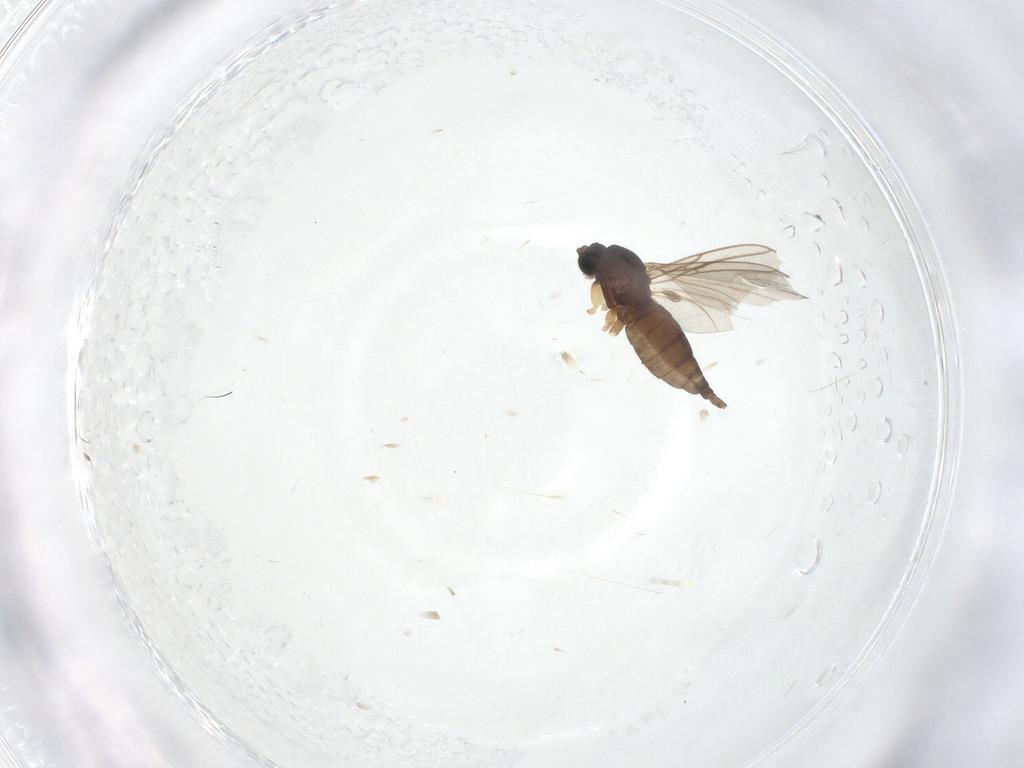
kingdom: Animalia
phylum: Arthropoda
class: Insecta
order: Diptera
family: Sciaridae
